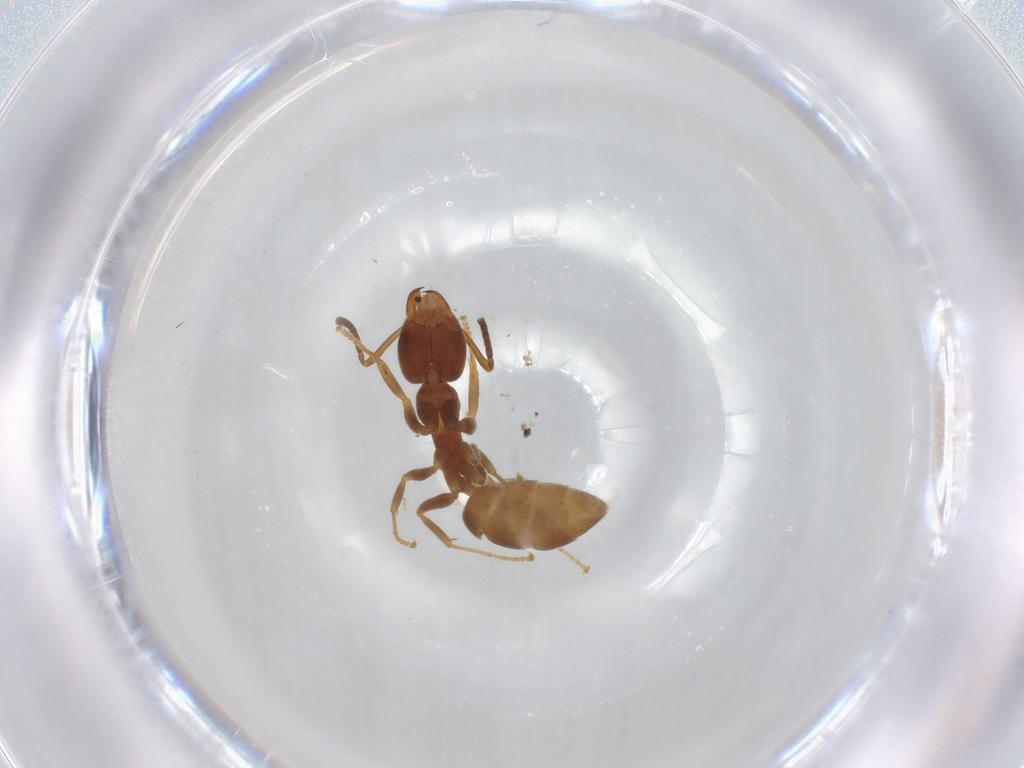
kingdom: Animalia
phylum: Arthropoda
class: Insecta
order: Hymenoptera
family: Formicidae
